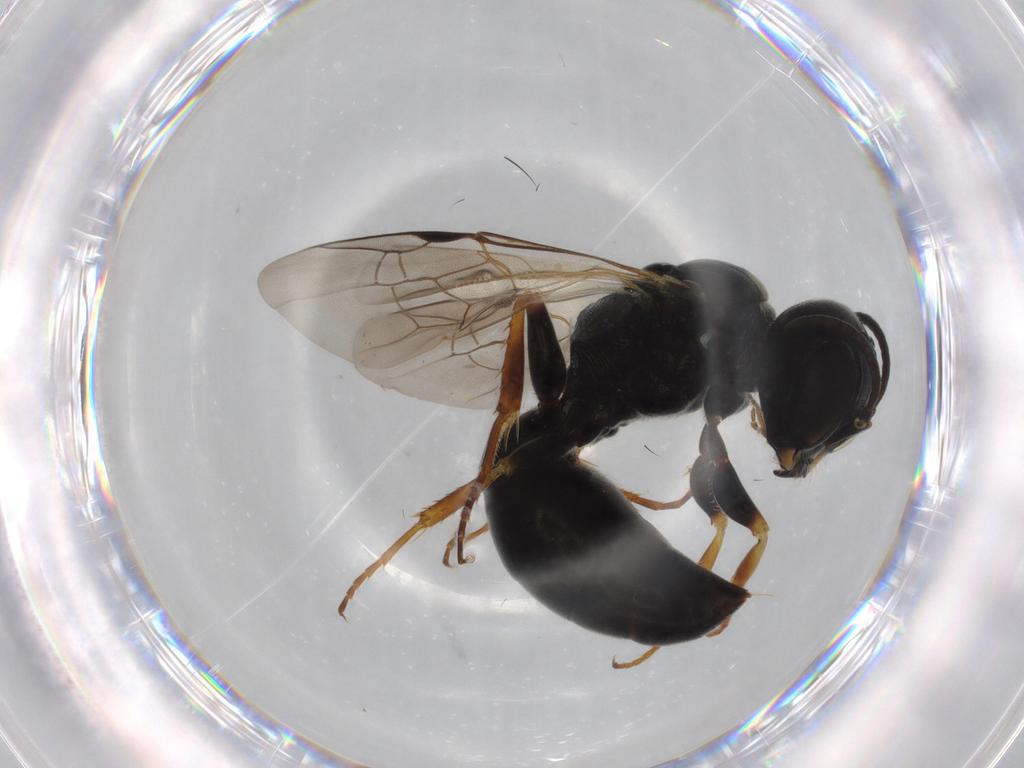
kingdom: Animalia
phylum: Arthropoda
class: Insecta
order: Hymenoptera
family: Crabronidae
